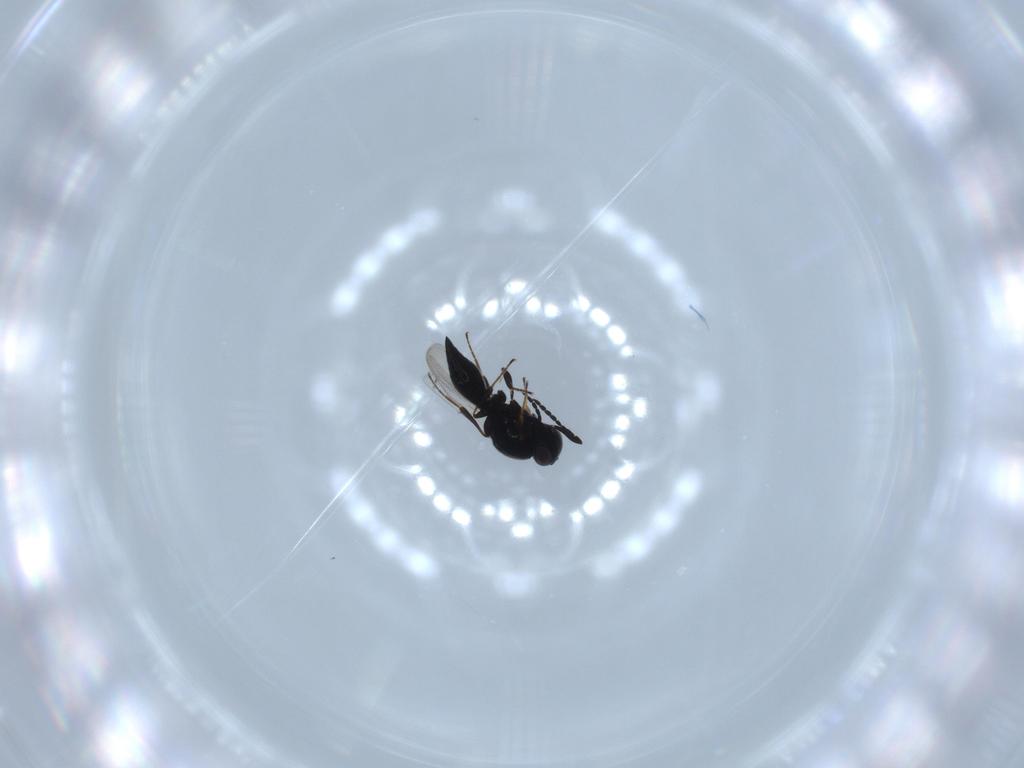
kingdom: Animalia
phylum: Arthropoda
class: Insecta
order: Diptera
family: Mythicomyiidae
